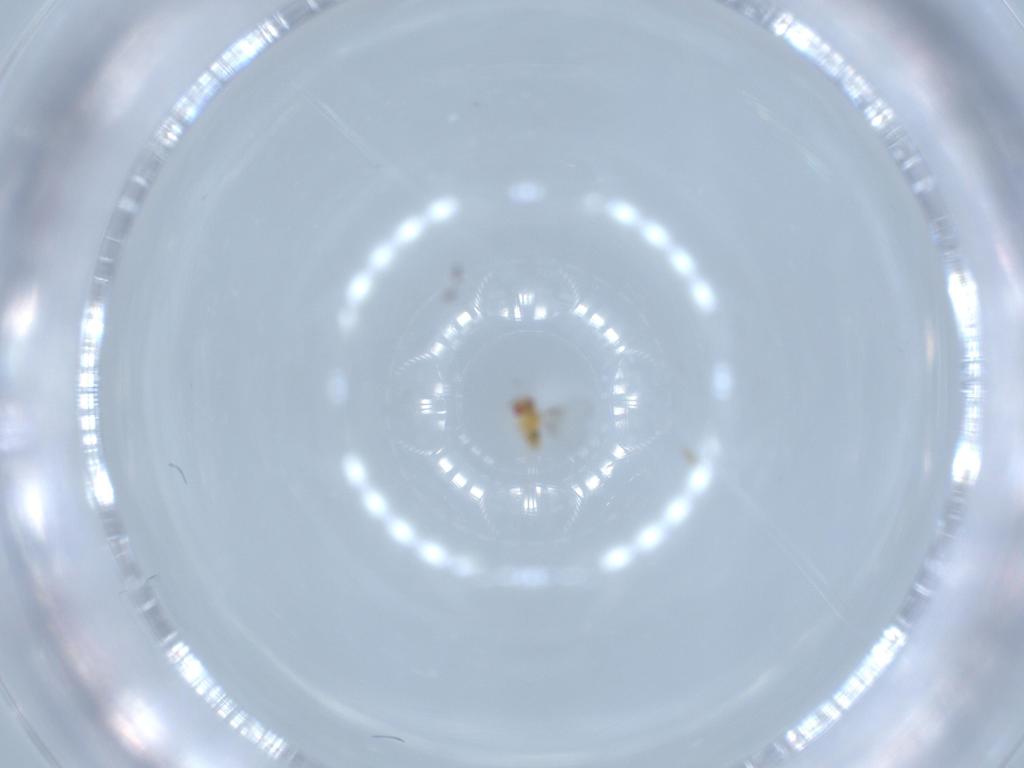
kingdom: Animalia
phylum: Arthropoda
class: Insecta
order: Hymenoptera
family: Trichogrammatidae
